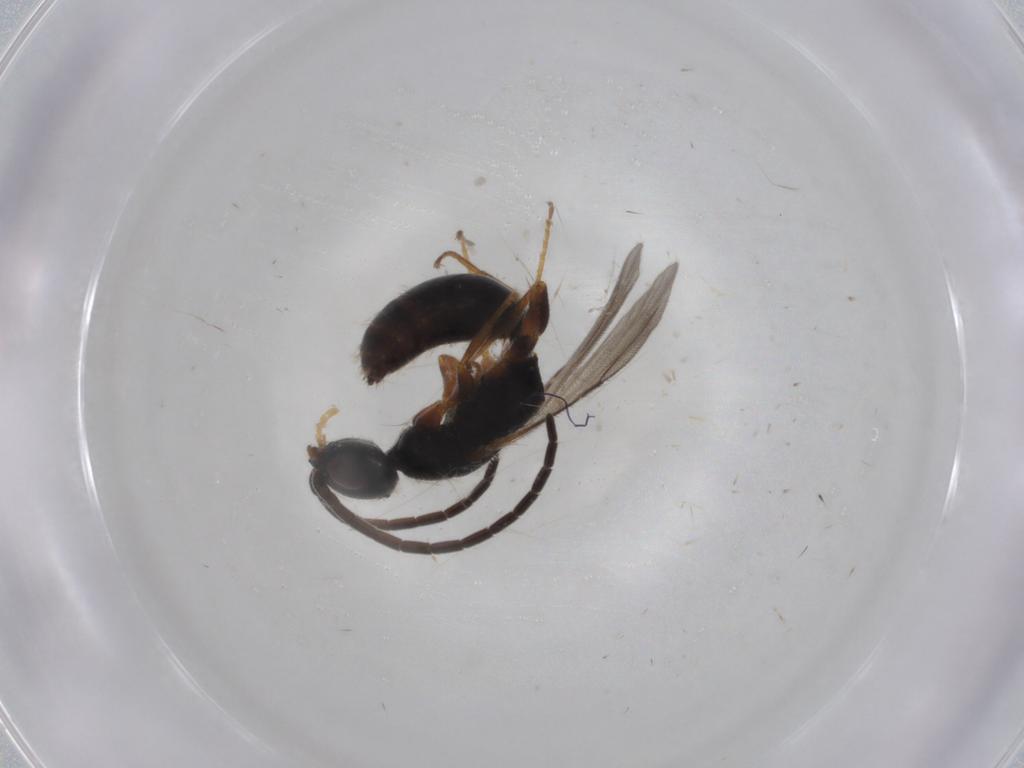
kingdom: Animalia
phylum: Arthropoda
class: Insecta
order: Hymenoptera
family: Bethylidae
